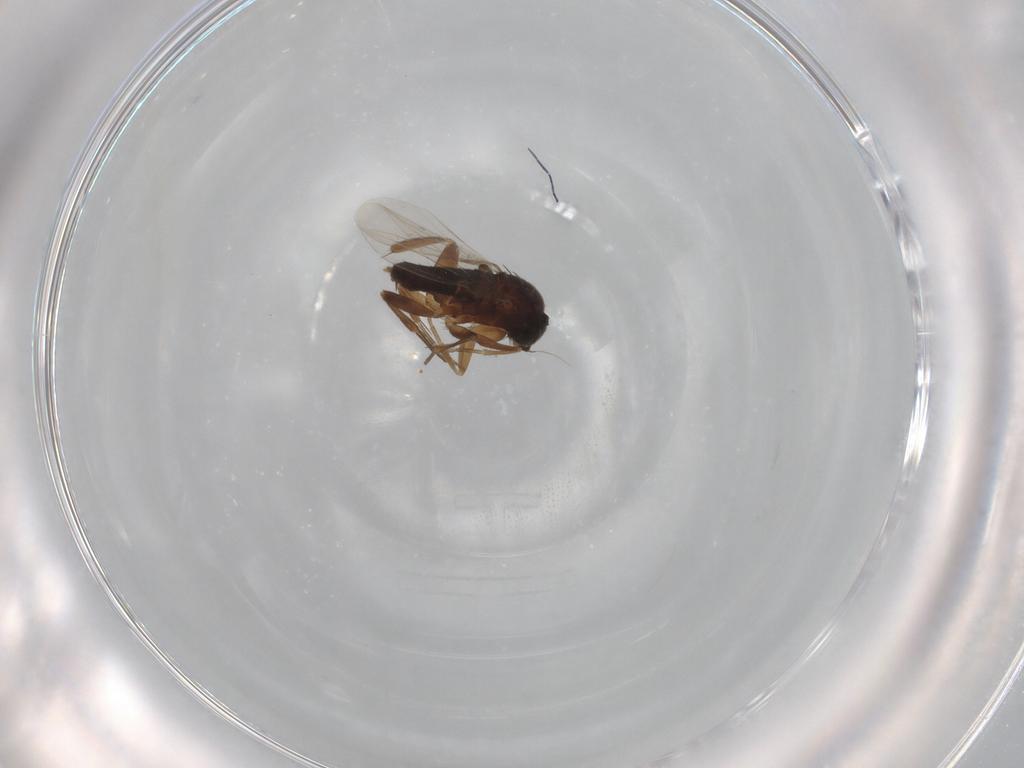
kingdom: Animalia
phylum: Arthropoda
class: Insecta
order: Diptera
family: Phoridae
